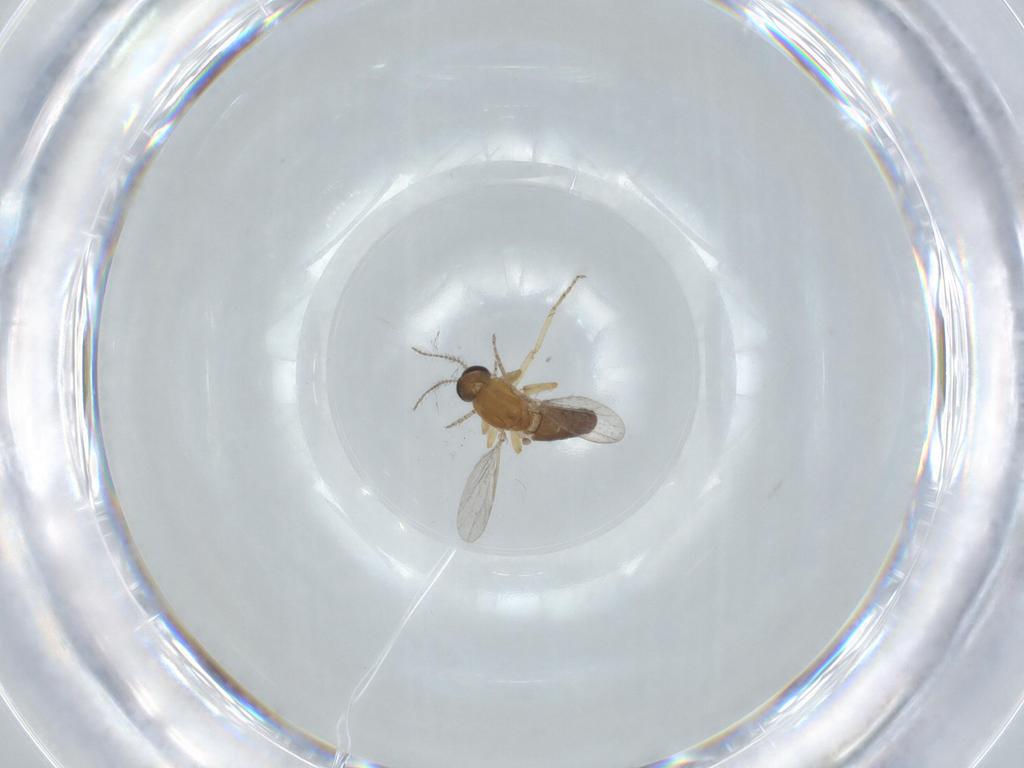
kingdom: Animalia
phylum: Arthropoda
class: Insecta
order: Diptera
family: Ceratopogonidae
